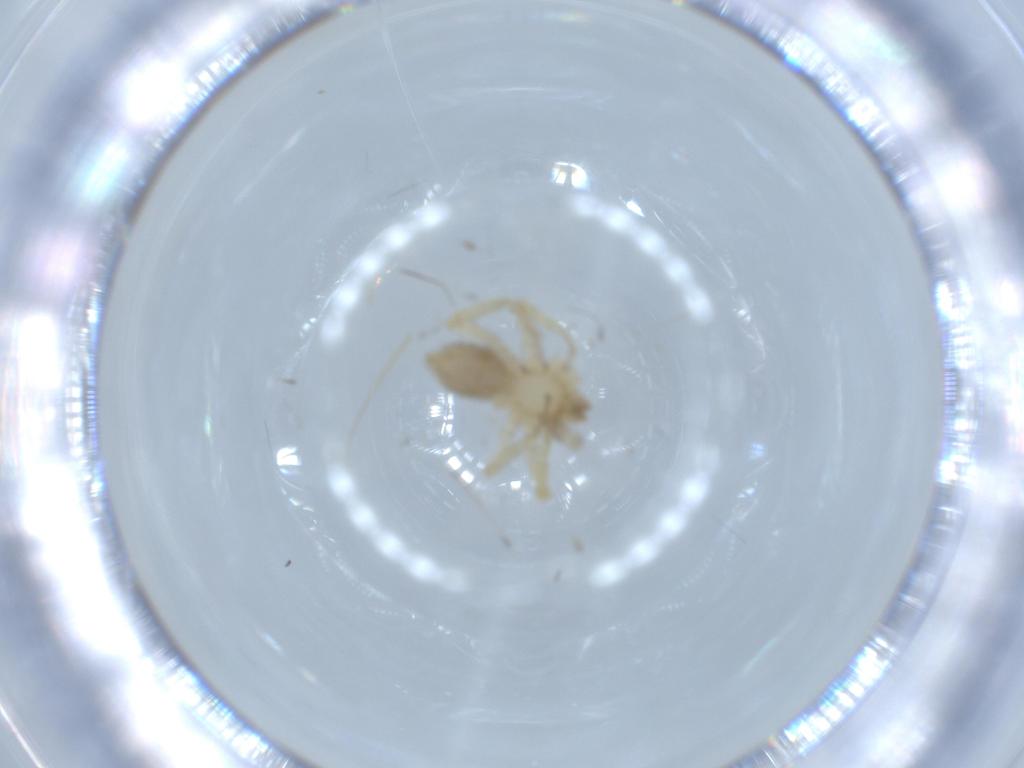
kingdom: Animalia
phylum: Arthropoda
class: Arachnida
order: Araneae
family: Oonopidae
